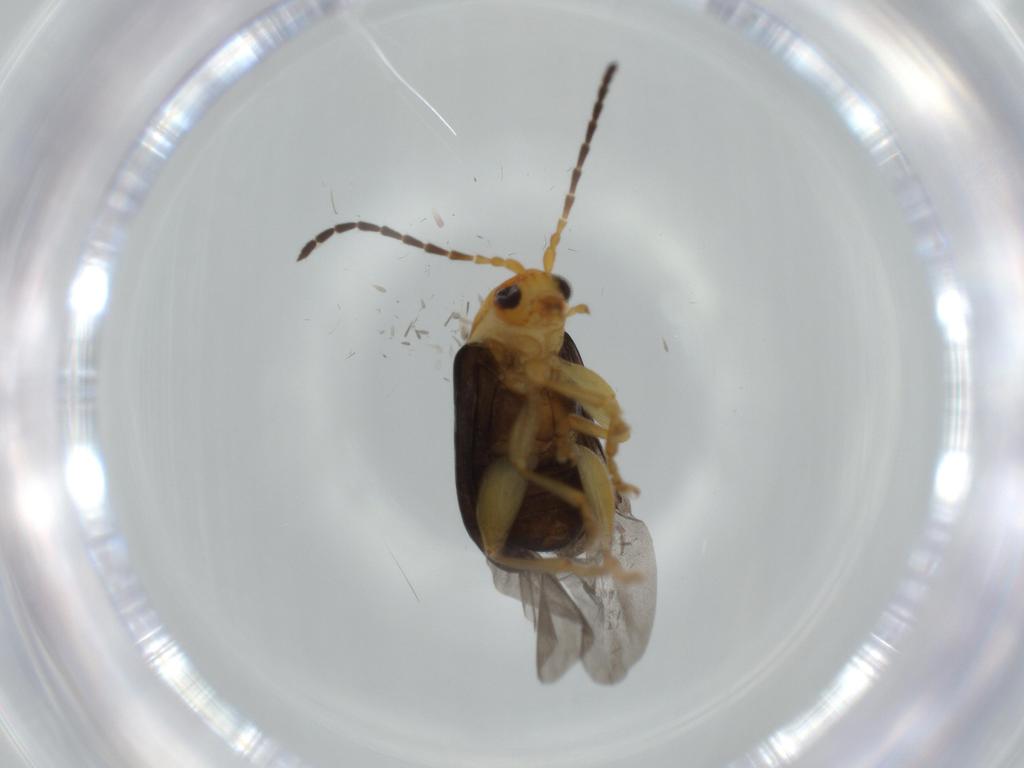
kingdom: Animalia
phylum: Arthropoda
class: Insecta
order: Coleoptera
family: Chrysomelidae
